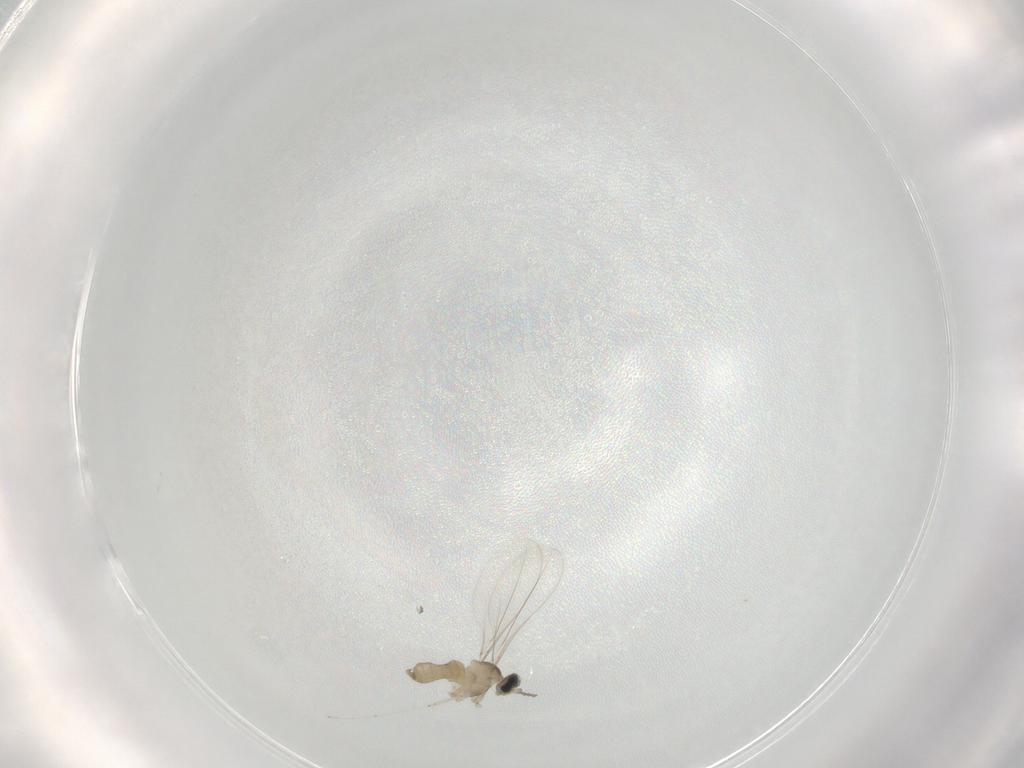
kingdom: Animalia
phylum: Arthropoda
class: Insecta
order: Diptera
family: Cecidomyiidae
